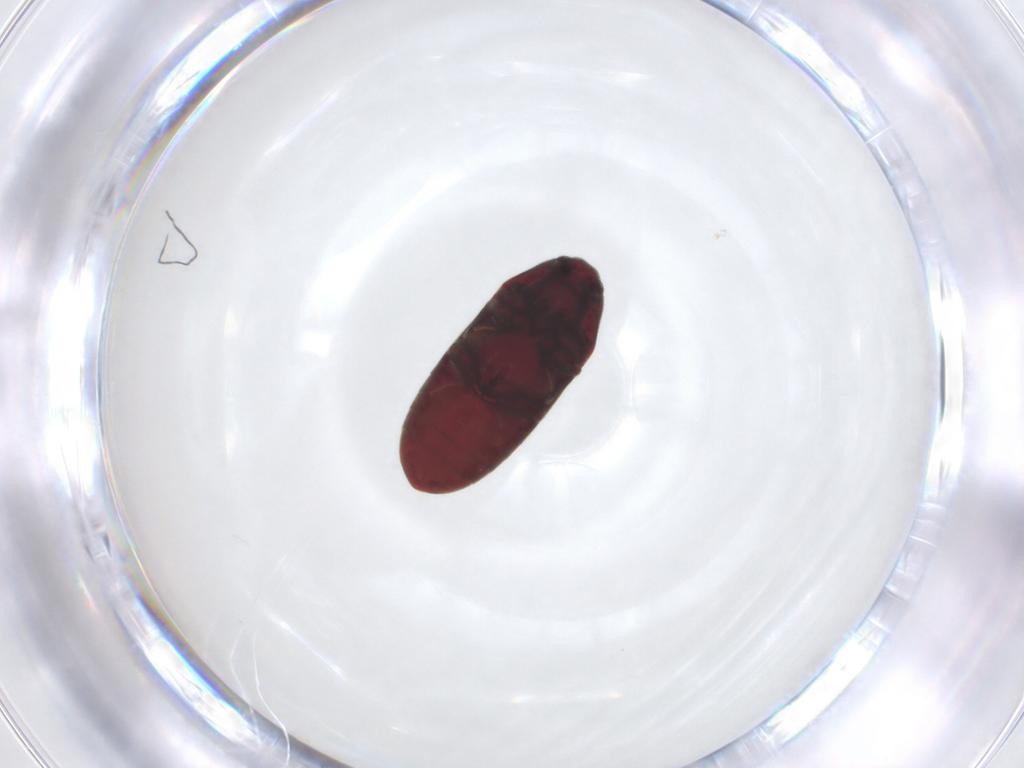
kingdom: Animalia
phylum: Arthropoda
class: Insecta
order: Coleoptera
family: Throscidae
